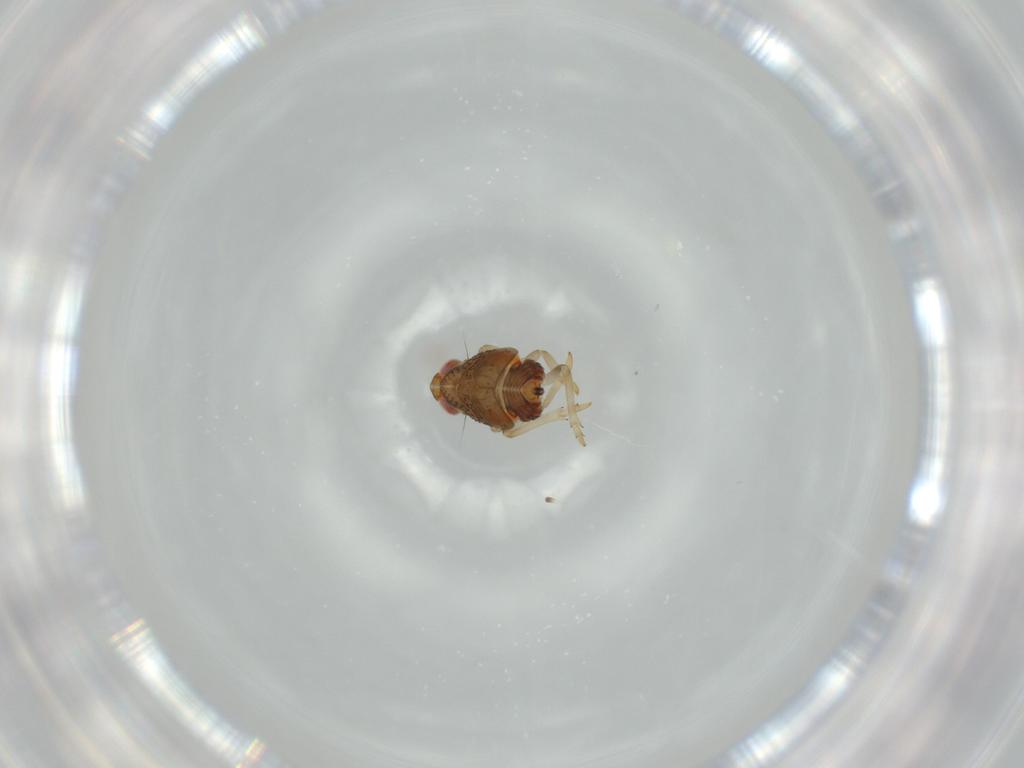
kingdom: Animalia
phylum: Arthropoda
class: Insecta
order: Hemiptera
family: Issidae
